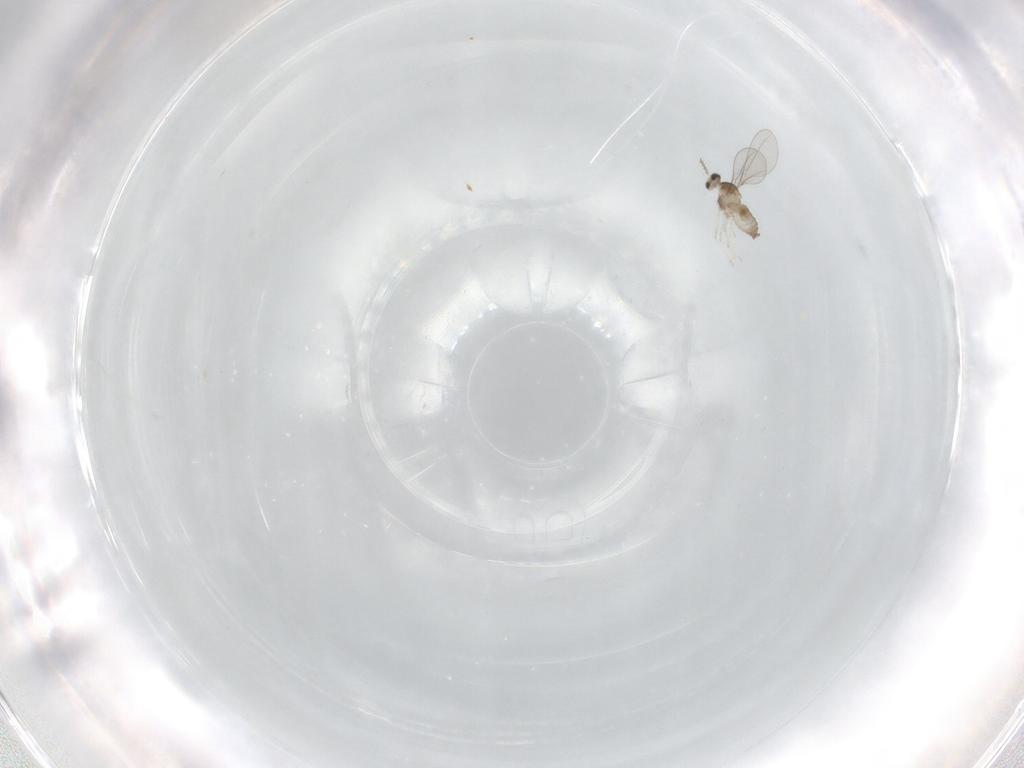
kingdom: Animalia
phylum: Arthropoda
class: Insecta
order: Diptera
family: Cecidomyiidae
